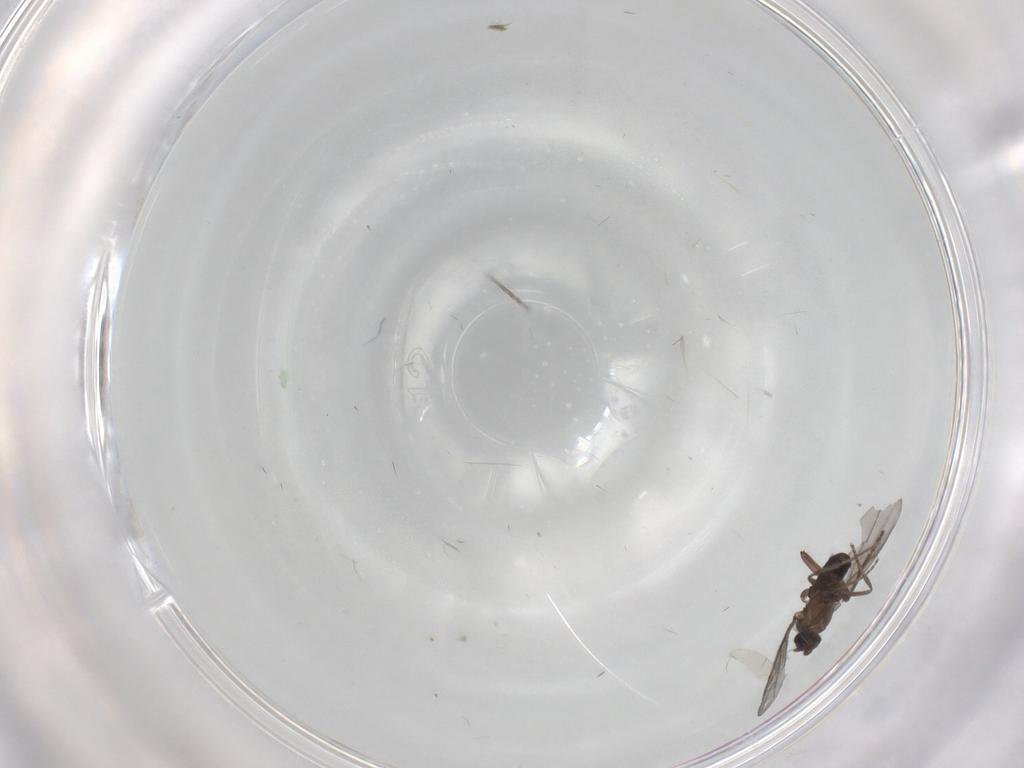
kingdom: Animalia
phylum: Arthropoda
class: Insecta
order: Diptera
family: Cecidomyiidae
